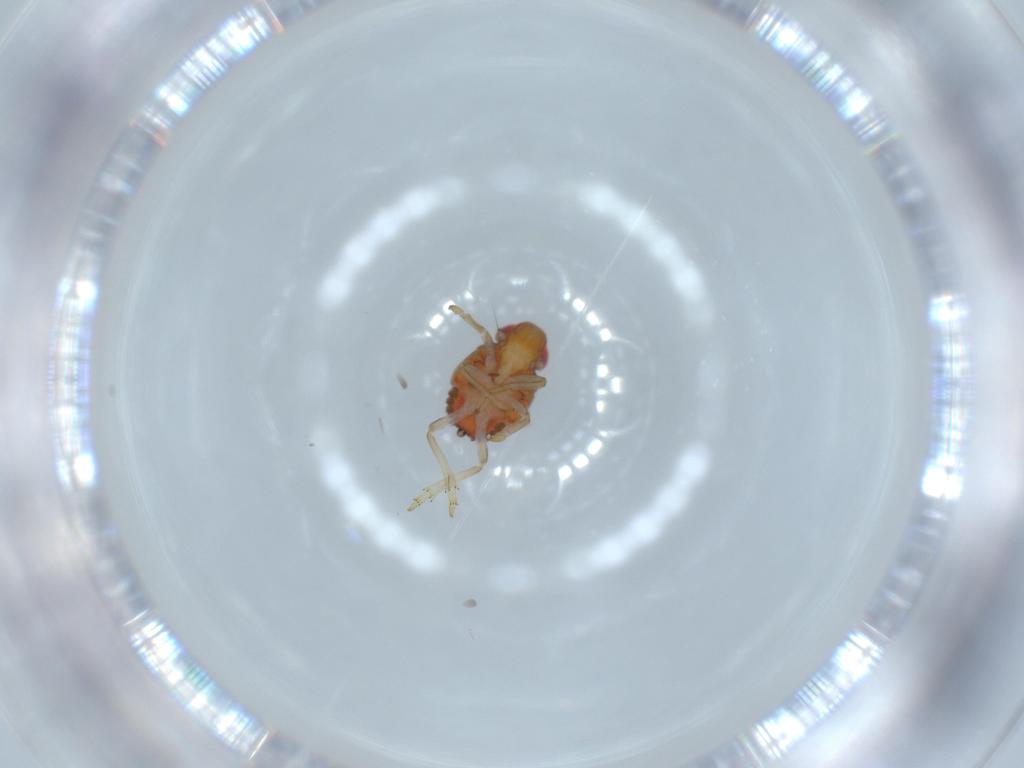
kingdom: Animalia
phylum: Arthropoda
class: Insecta
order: Hemiptera
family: Issidae
